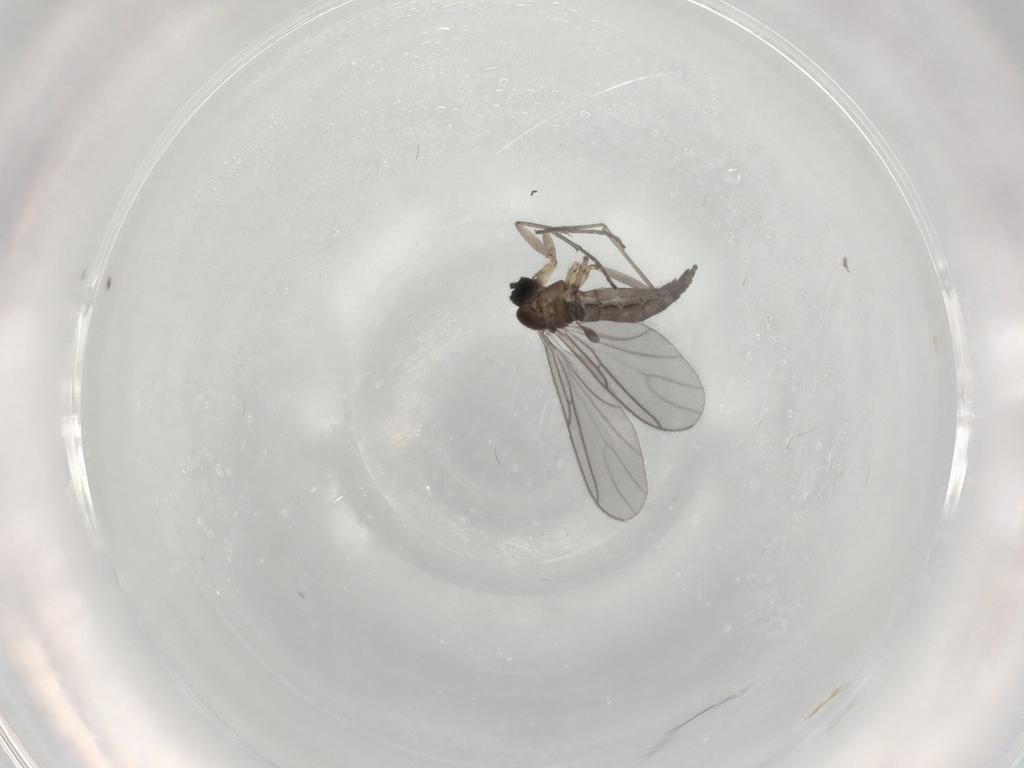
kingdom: Animalia
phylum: Arthropoda
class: Insecta
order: Diptera
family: Sciaridae
